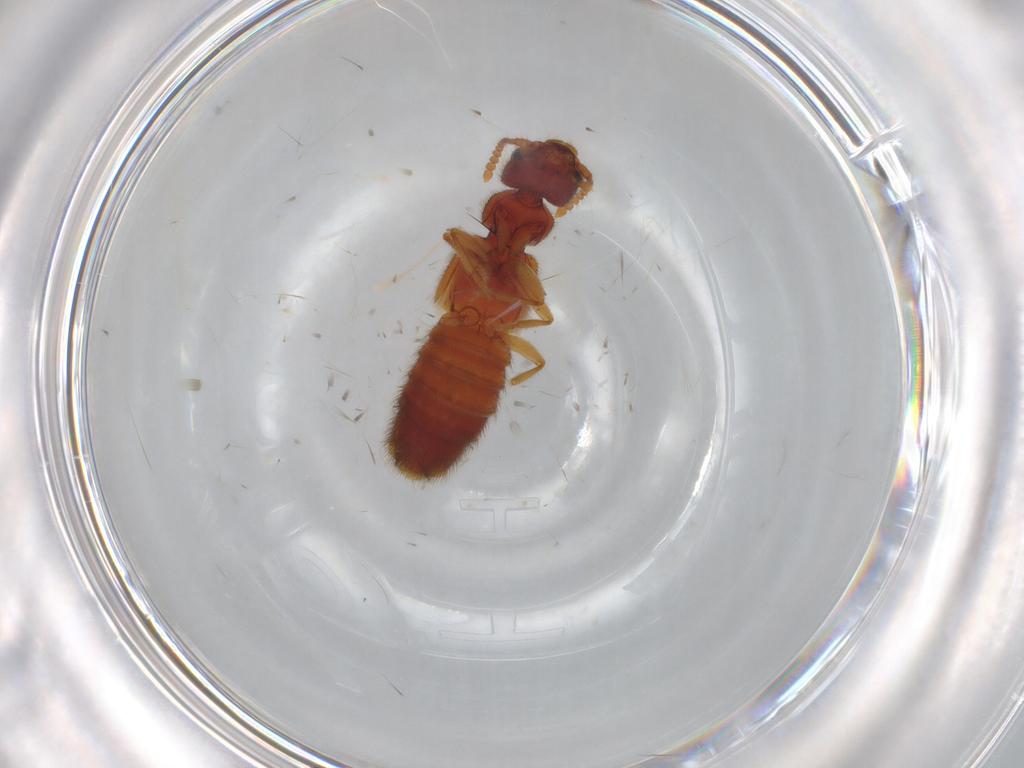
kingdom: Animalia
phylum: Arthropoda
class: Insecta
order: Coleoptera
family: Staphylinidae
